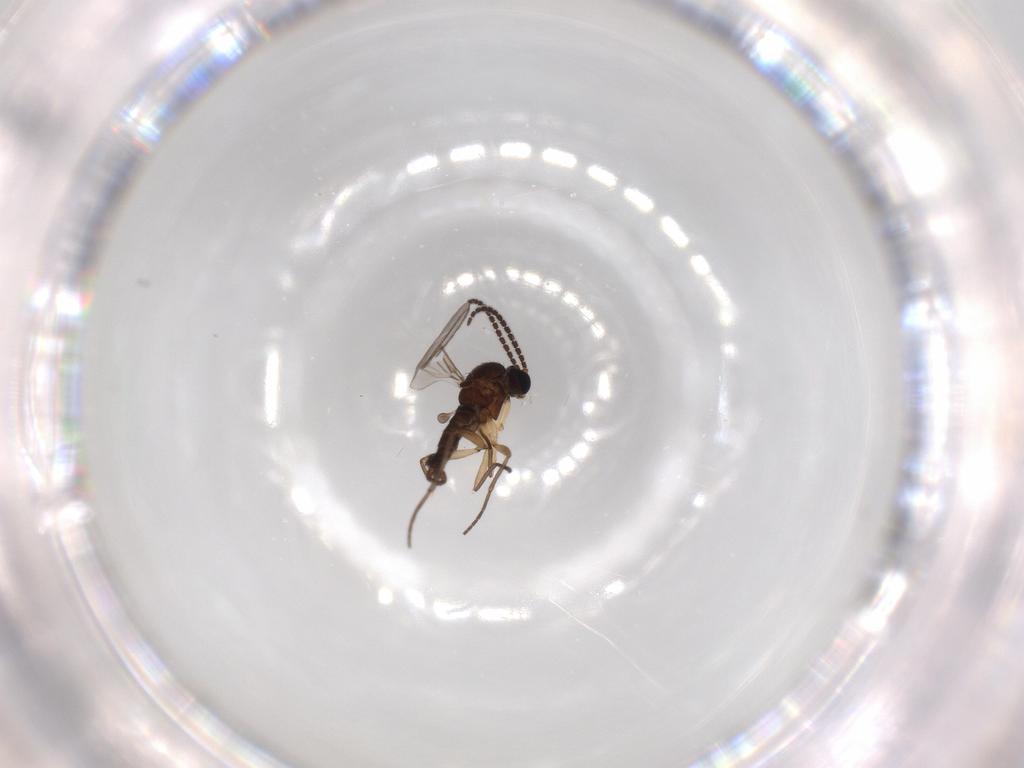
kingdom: Animalia
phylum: Arthropoda
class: Insecta
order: Diptera
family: Sciaridae
